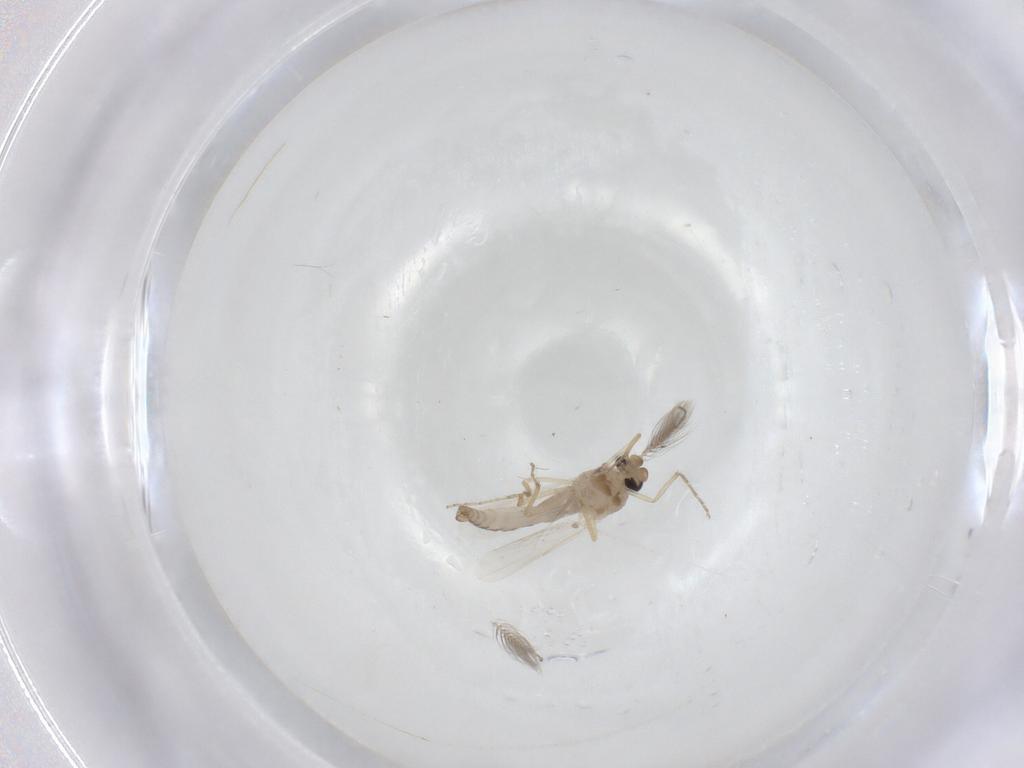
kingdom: Animalia
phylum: Arthropoda
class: Insecta
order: Diptera
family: Ceratopogonidae
